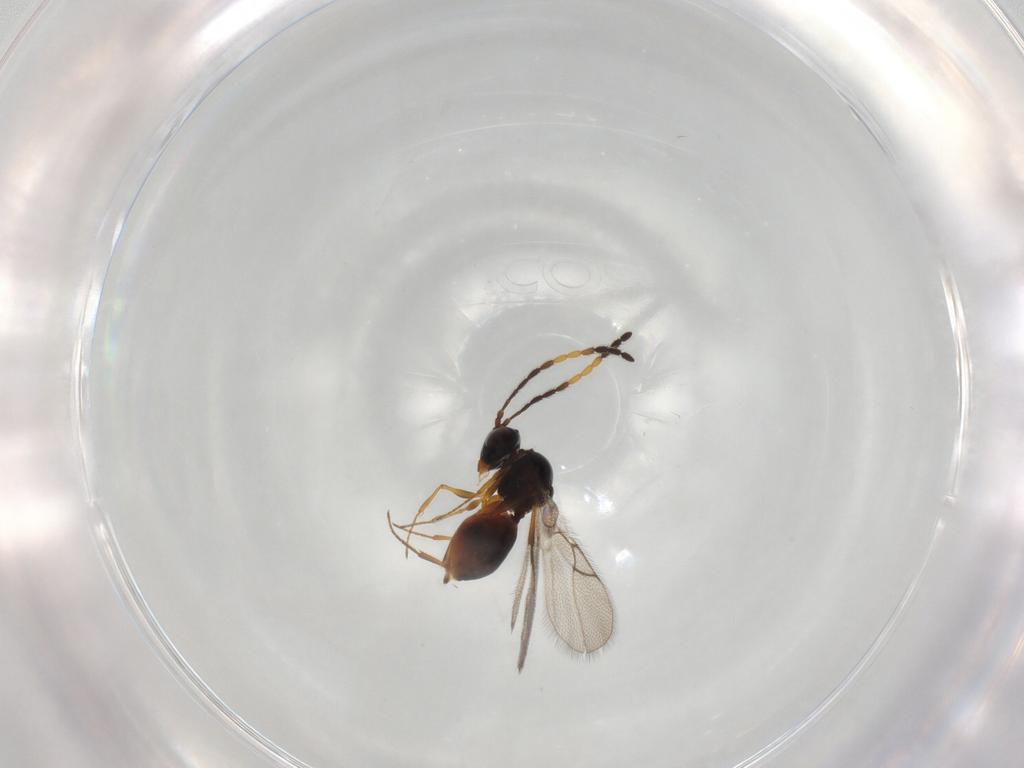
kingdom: Animalia
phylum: Arthropoda
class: Insecta
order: Hymenoptera
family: Figitidae
